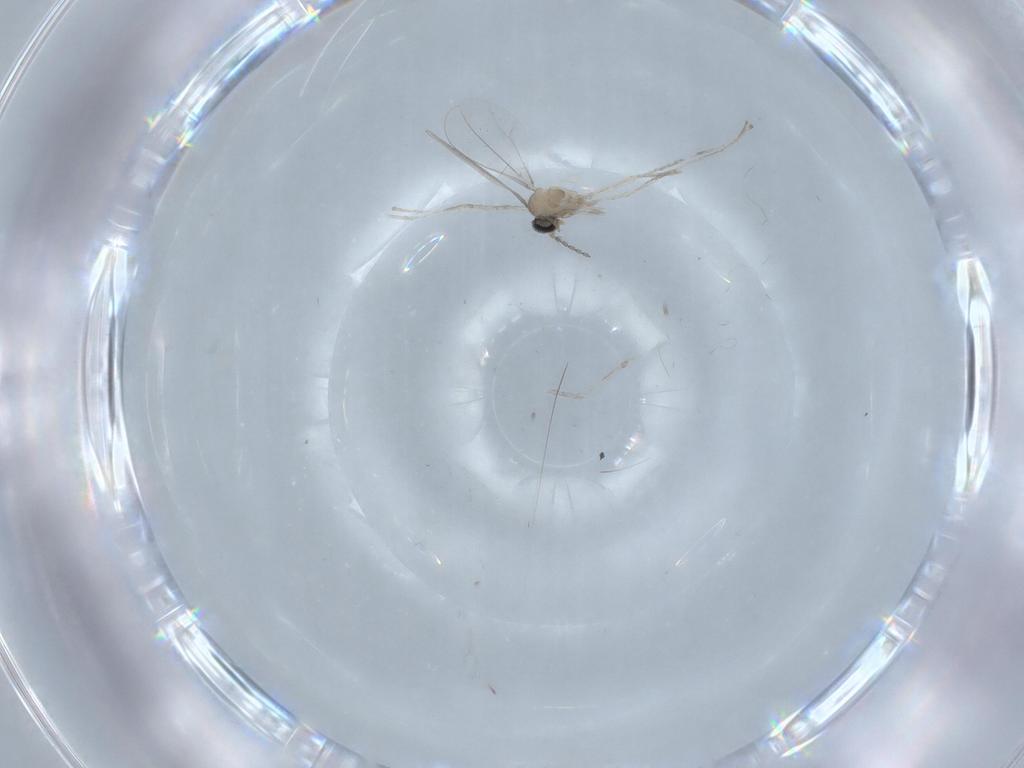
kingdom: Animalia
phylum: Arthropoda
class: Insecta
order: Diptera
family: Cecidomyiidae
